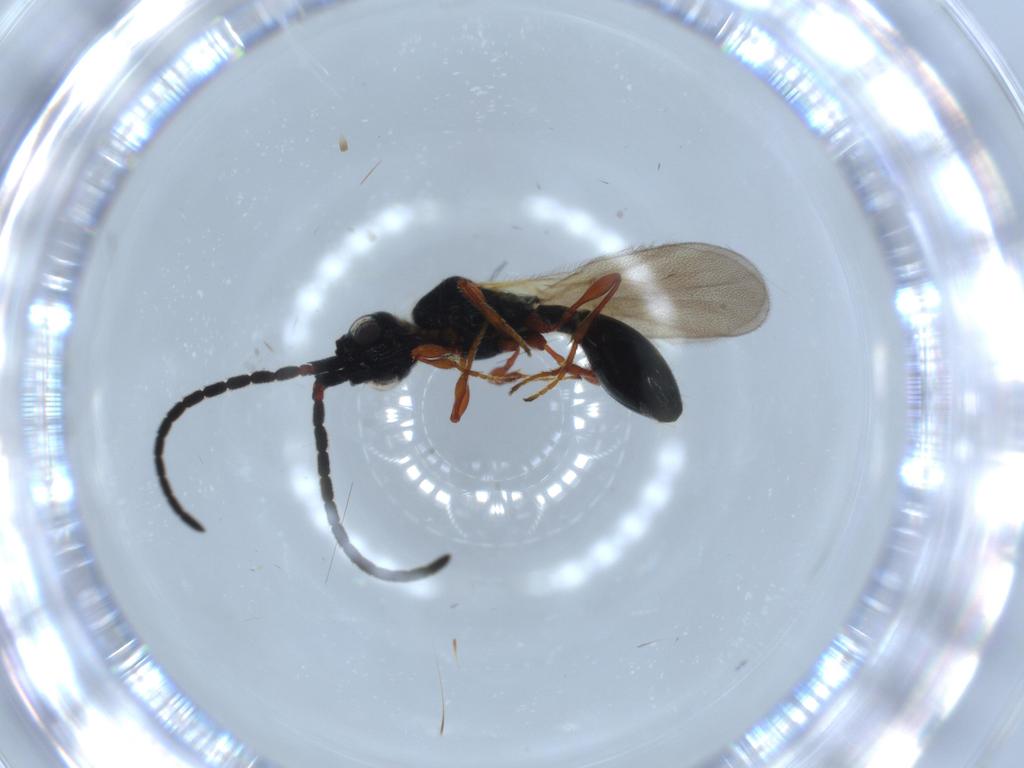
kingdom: Animalia
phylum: Arthropoda
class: Insecta
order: Hymenoptera
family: Diapriidae
